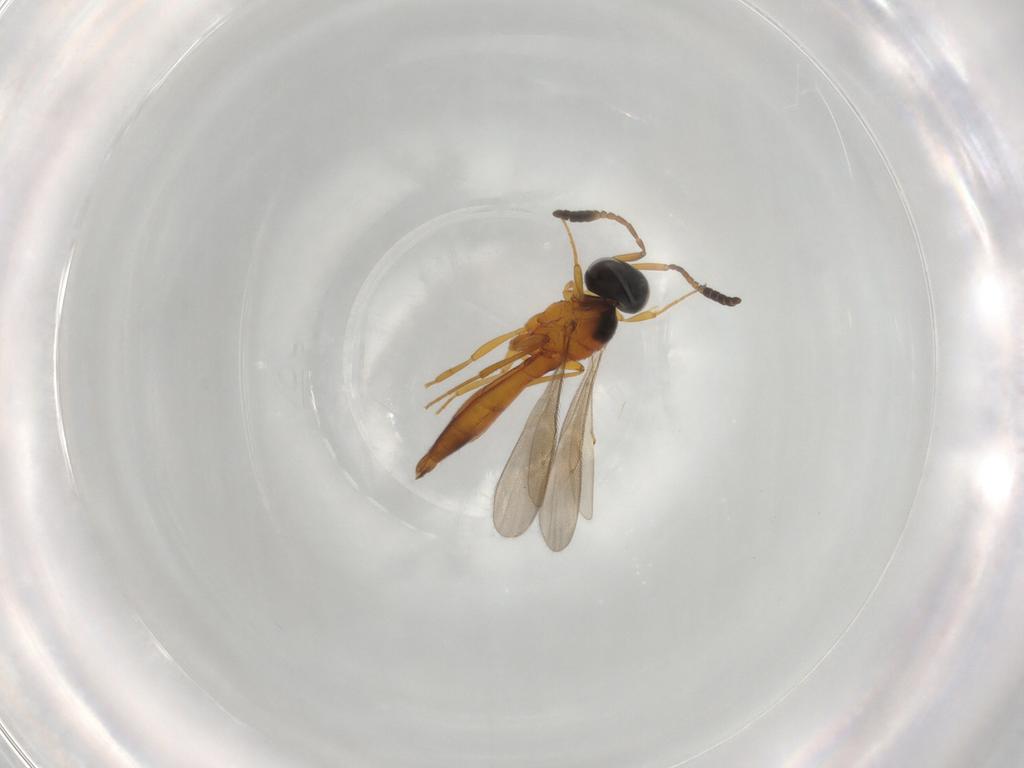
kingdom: Animalia
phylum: Arthropoda
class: Insecta
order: Hymenoptera
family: Scelionidae
